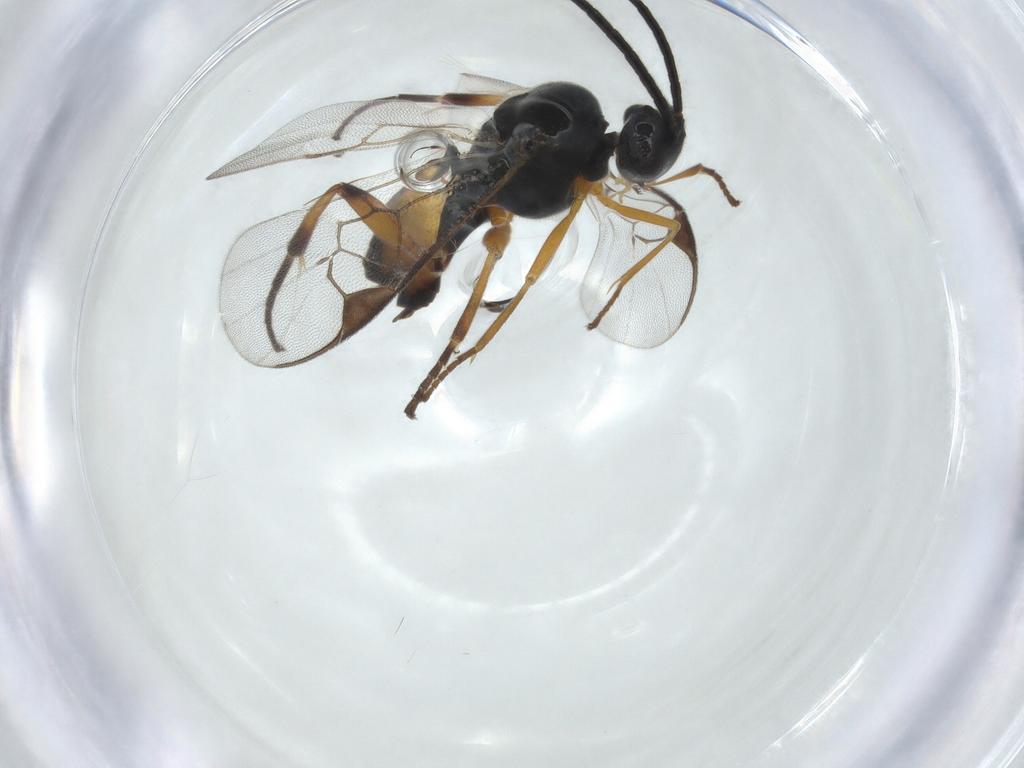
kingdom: Animalia
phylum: Arthropoda
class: Insecta
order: Hymenoptera
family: Braconidae
